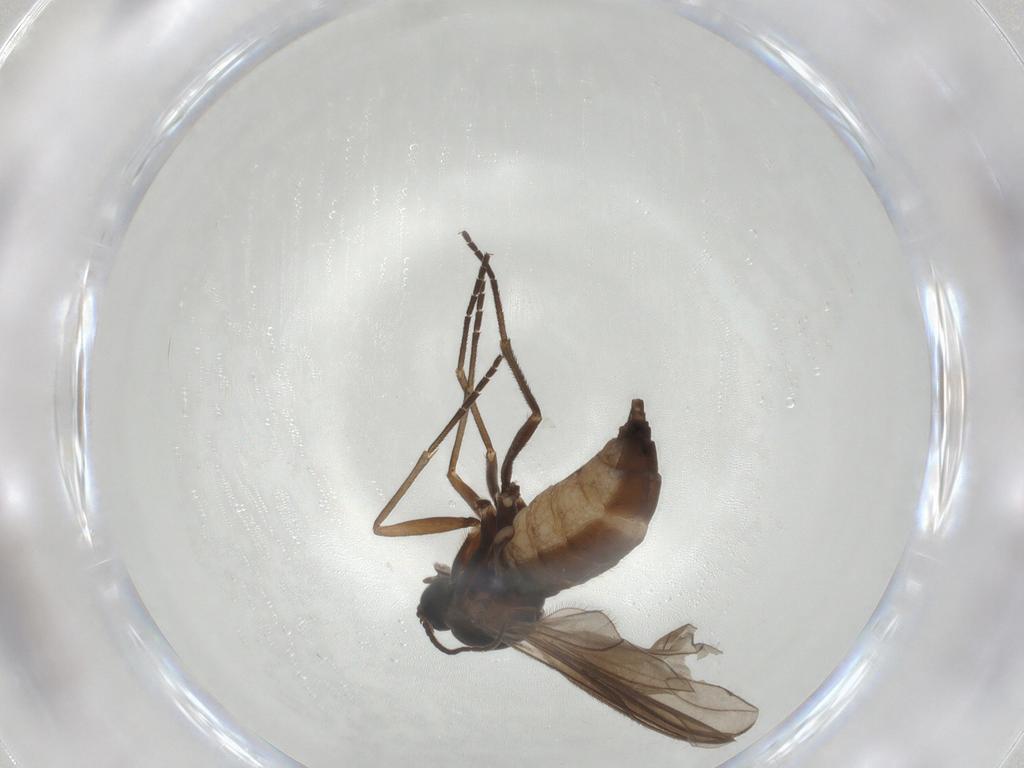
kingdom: Animalia
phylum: Arthropoda
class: Insecta
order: Diptera
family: Sciaridae
